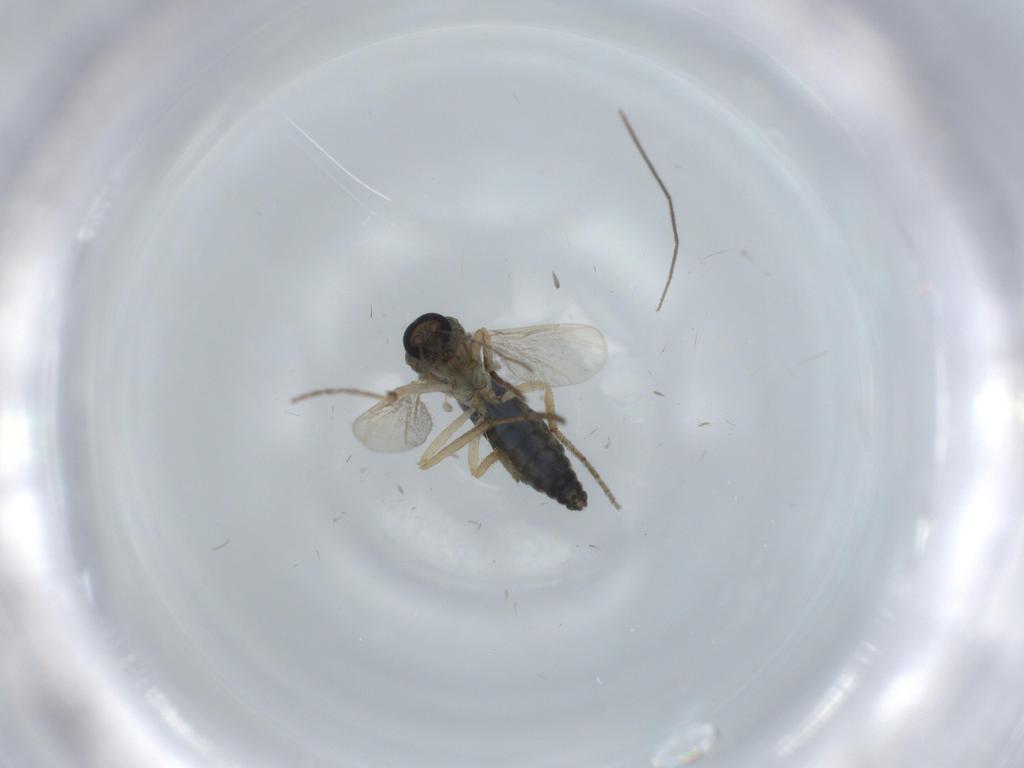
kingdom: Animalia
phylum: Arthropoda
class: Insecta
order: Diptera
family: Ceratopogonidae
